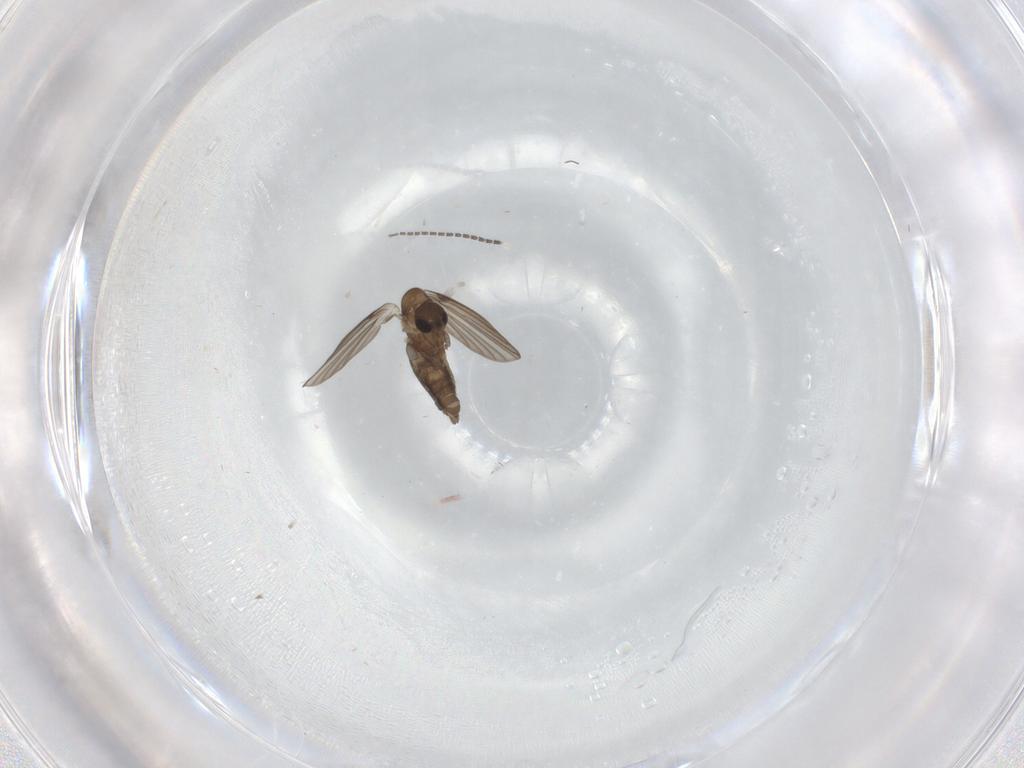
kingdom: Animalia
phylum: Arthropoda
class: Insecta
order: Diptera
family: Sciaridae
